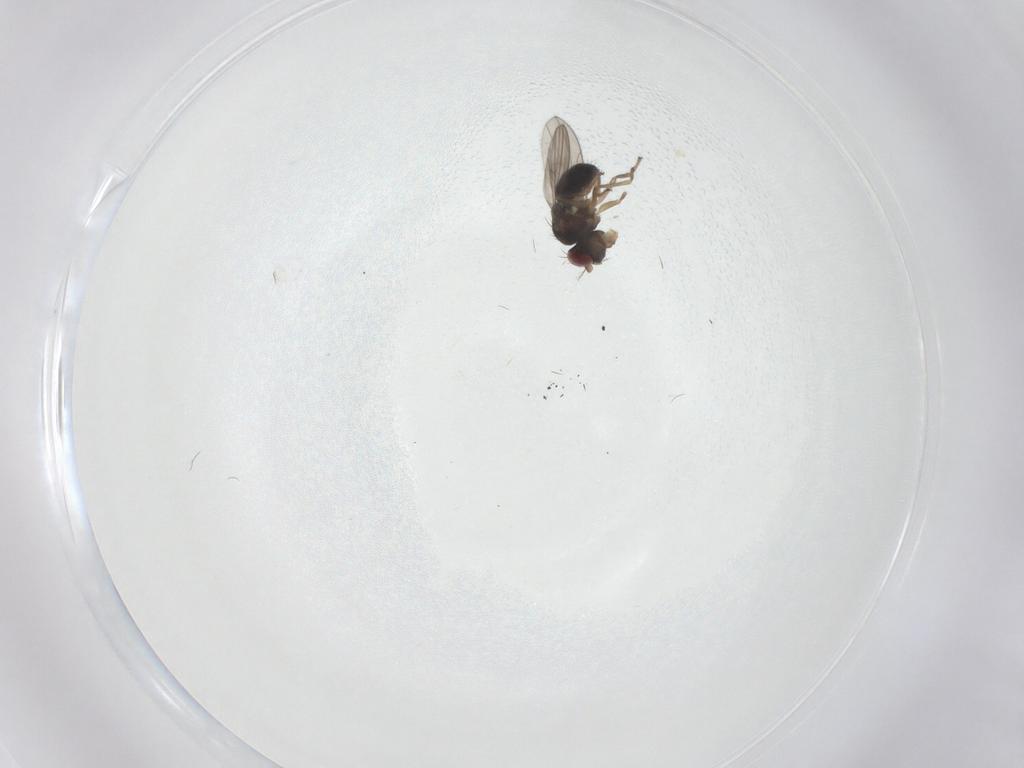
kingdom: Animalia
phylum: Arthropoda
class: Insecta
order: Diptera
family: Ephydridae
